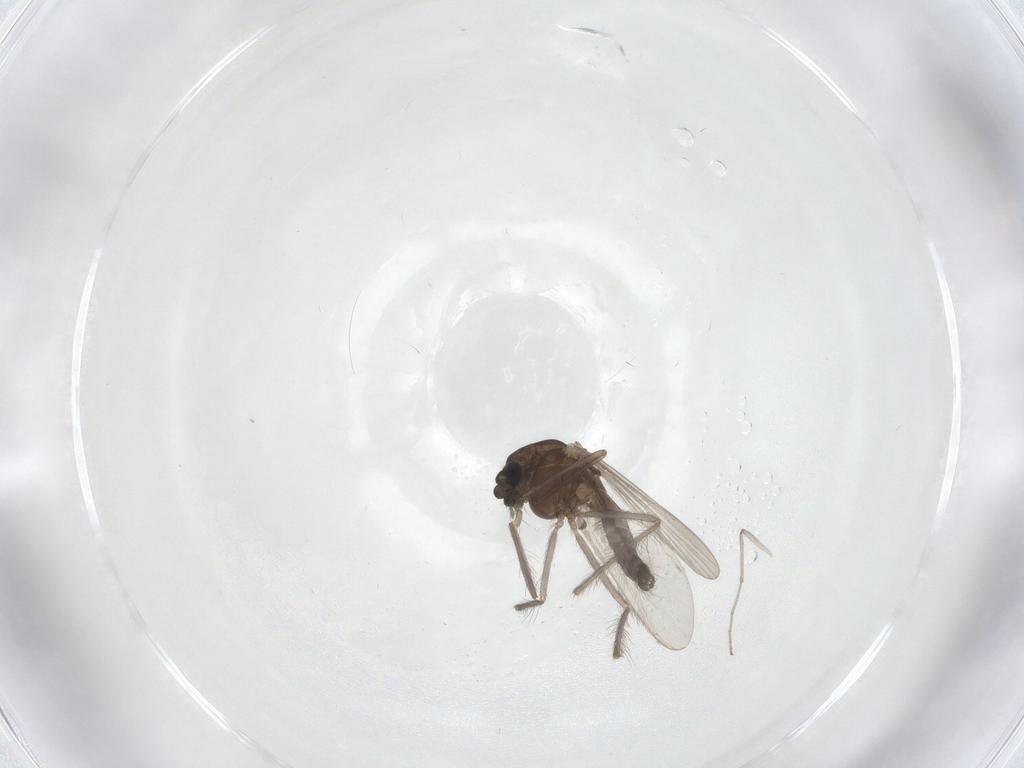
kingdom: Animalia
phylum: Arthropoda
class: Insecta
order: Diptera
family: Chironomidae
